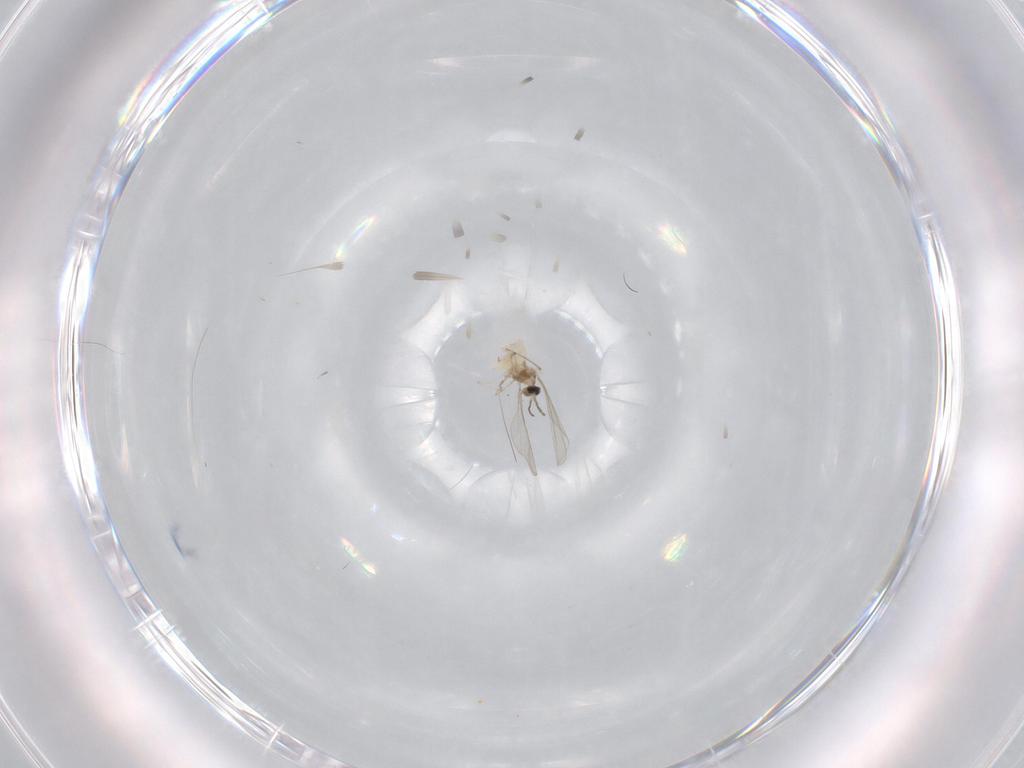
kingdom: Animalia
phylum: Arthropoda
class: Insecta
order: Diptera
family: Cecidomyiidae
